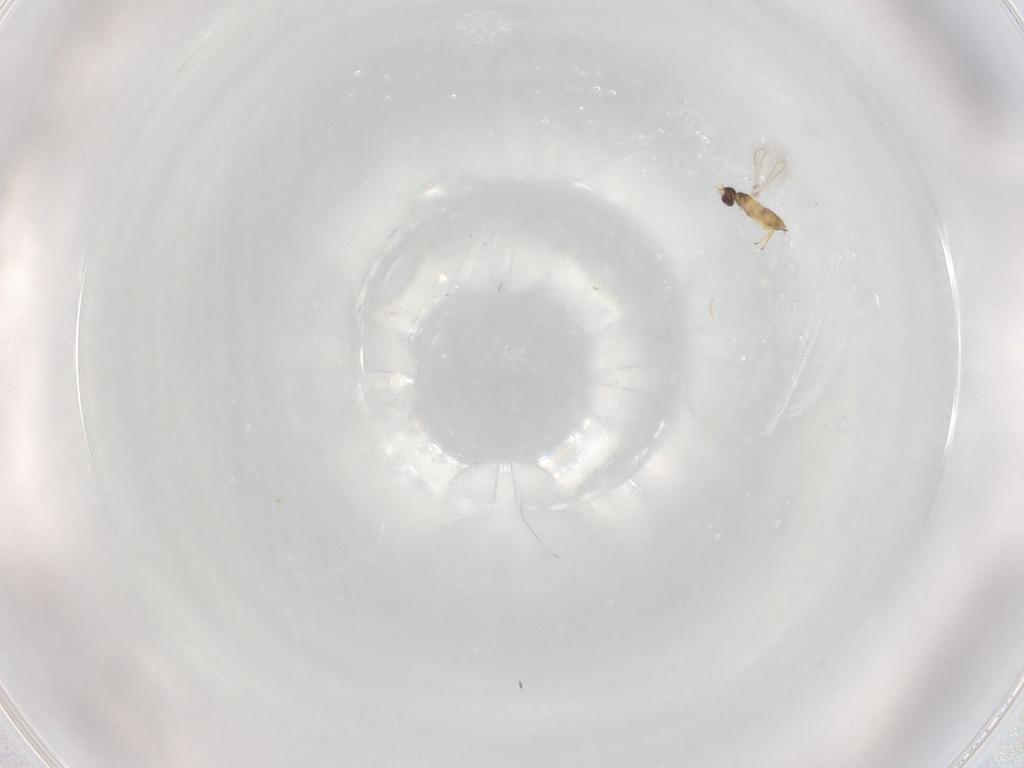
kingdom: Animalia
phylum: Arthropoda
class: Insecta
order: Hymenoptera
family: Mymaridae
